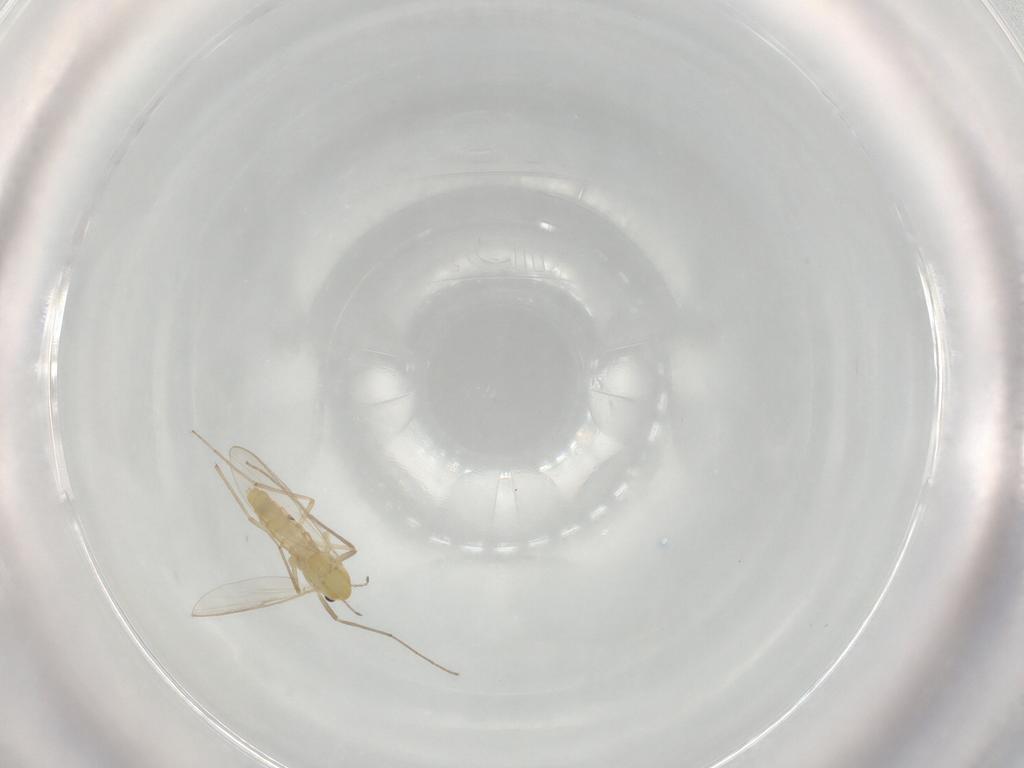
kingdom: Animalia
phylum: Arthropoda
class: Insecta
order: Diptera
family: Chironomidae
